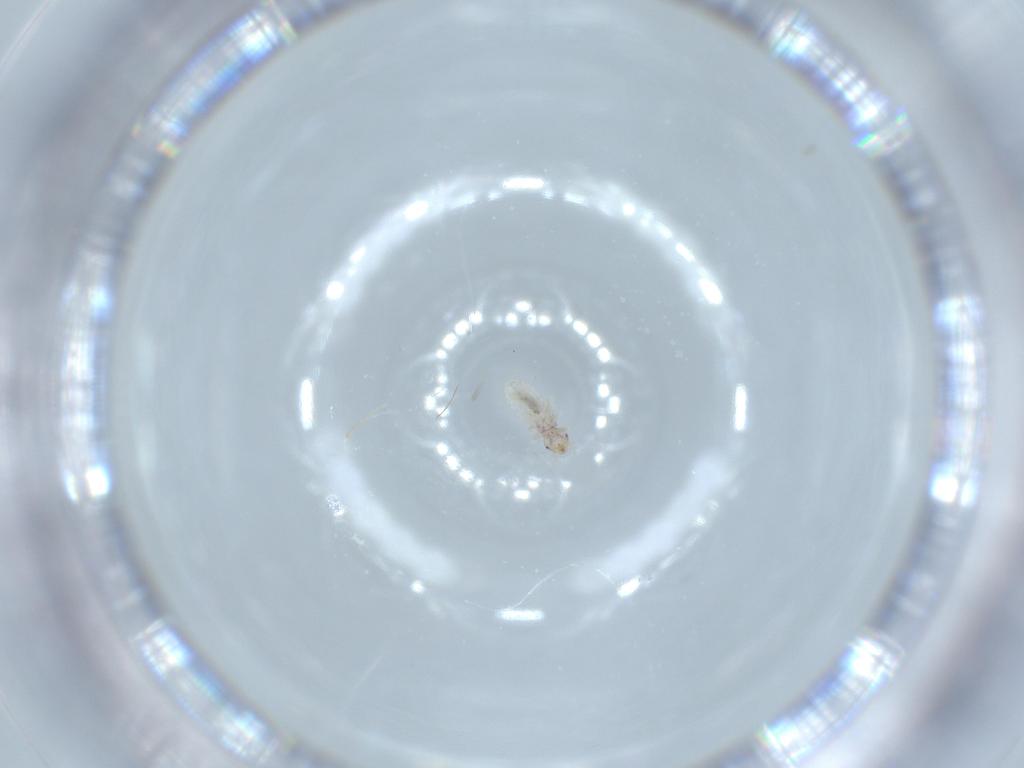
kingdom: Animalia
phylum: Arthropoda
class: Insecta
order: Psocodea
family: Liposcelididae
